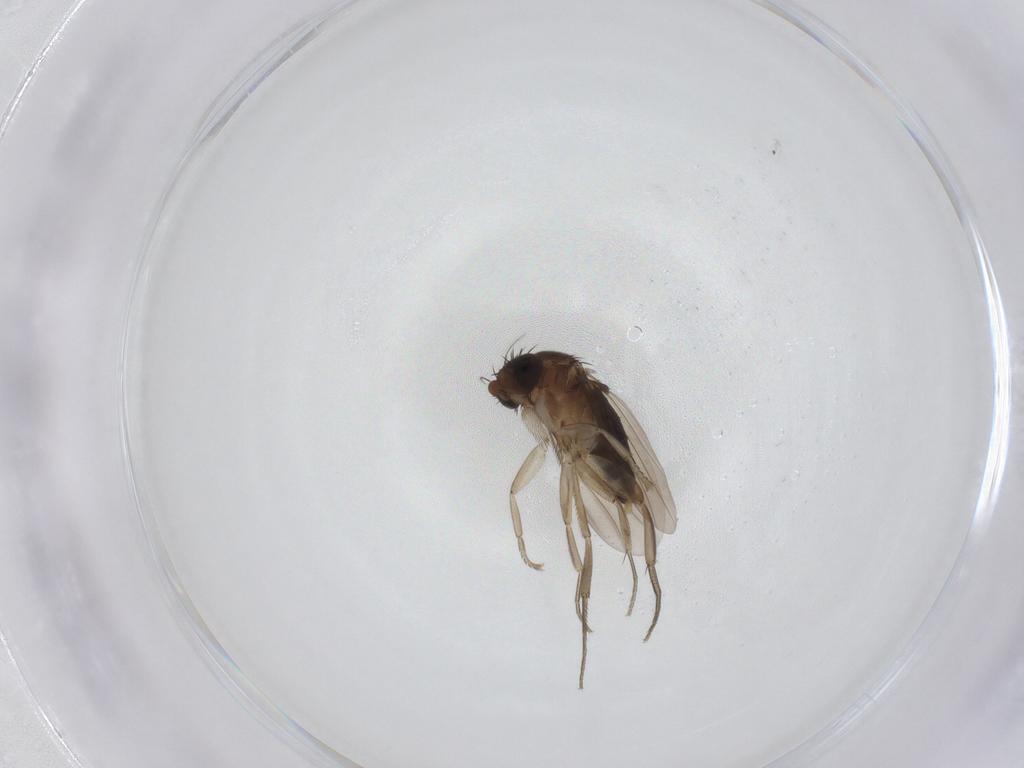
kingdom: Animalia
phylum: Arthropoda
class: Insecta
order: Diptera
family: Phoridae
